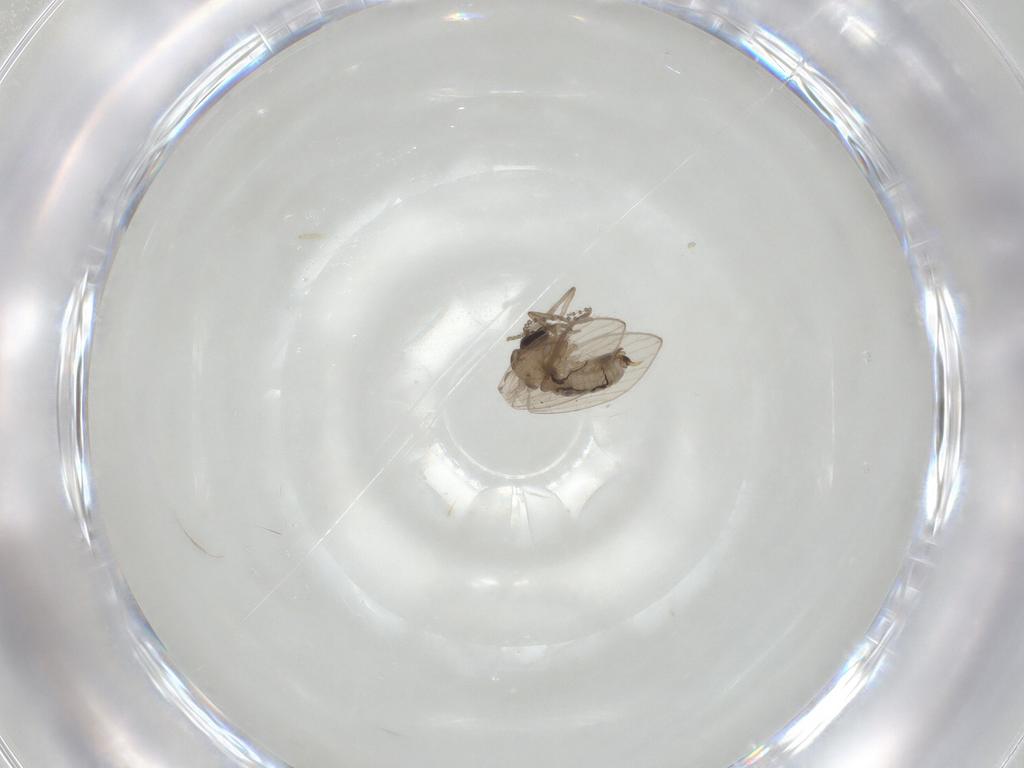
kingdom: Animalia
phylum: Arthropoda
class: Insecta
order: Diptera
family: Psychodidae
